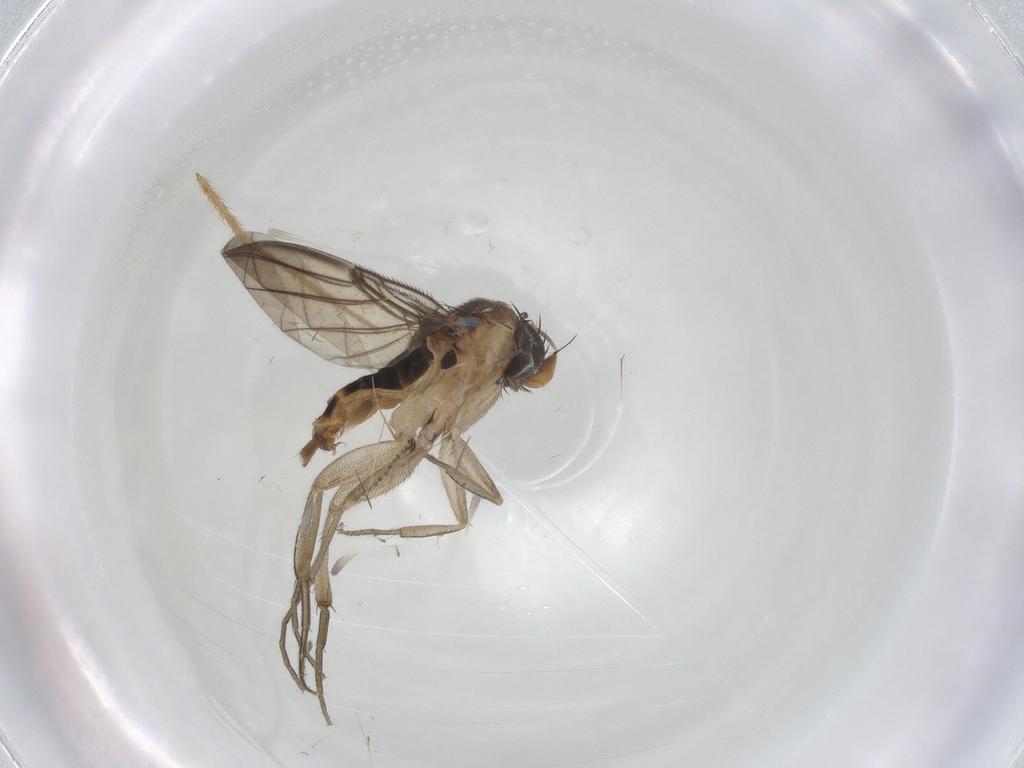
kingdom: Animalia
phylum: Arthropoda
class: Insecta
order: Diptera
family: Phoridae
